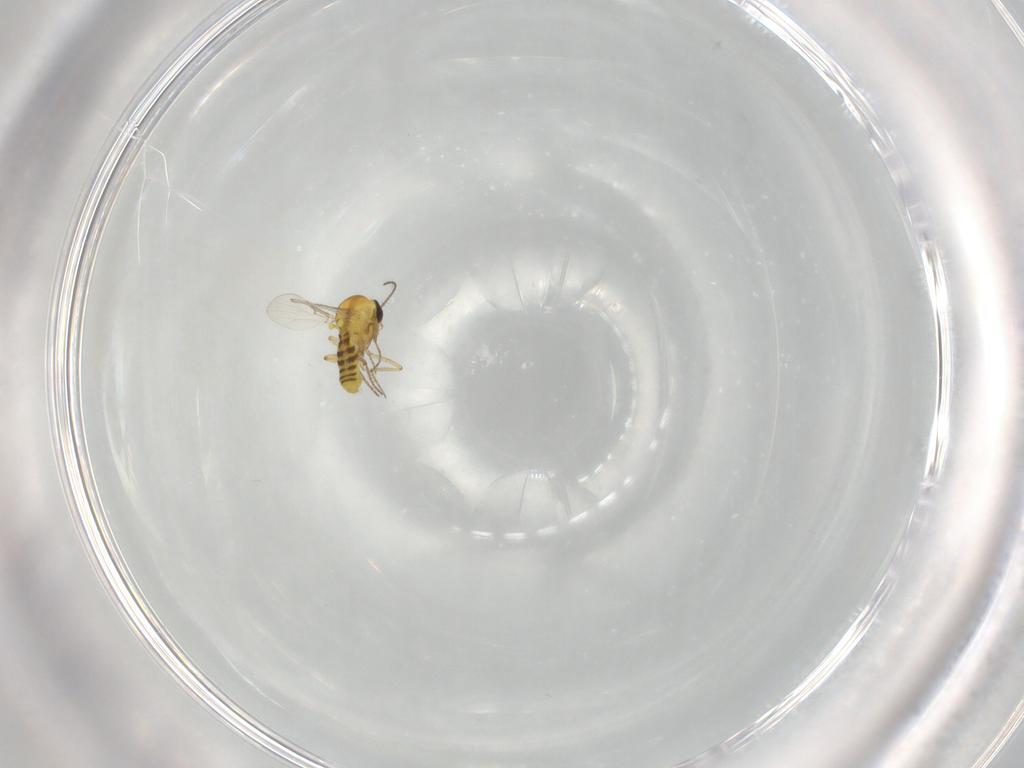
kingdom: Animalia
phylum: Arthropoda
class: Insecta
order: Diptera
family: Ceratopogonidae
